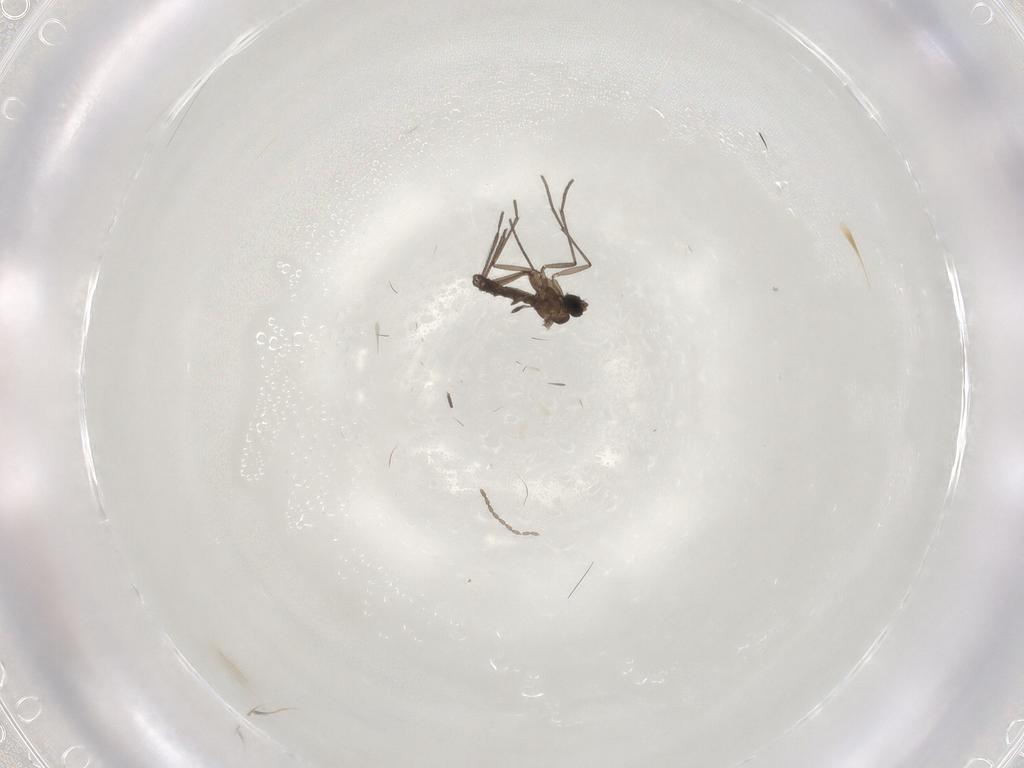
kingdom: Animalia
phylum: Arthropoda
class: Insecta
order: Diptera
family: Sciaridae
